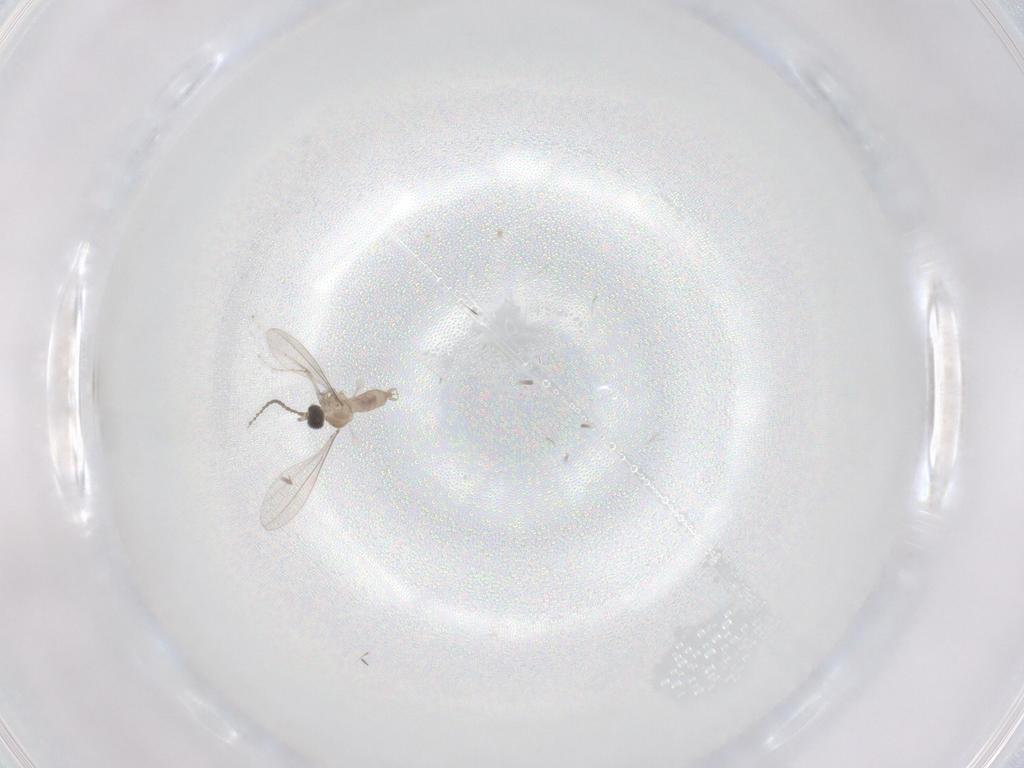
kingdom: Animalia
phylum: Arthropoda
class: Insecta
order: Diptera
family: Cecidomyiidae
